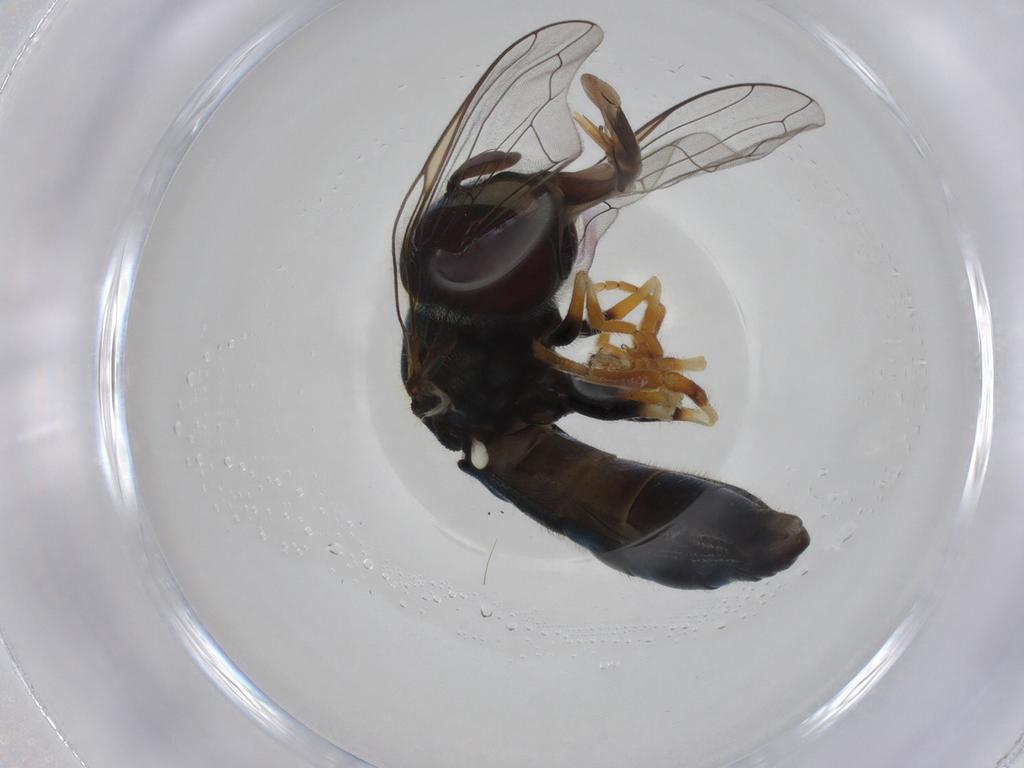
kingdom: Animalia
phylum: Arthropoda
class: Insecta
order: Diptera
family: Syrphidae
